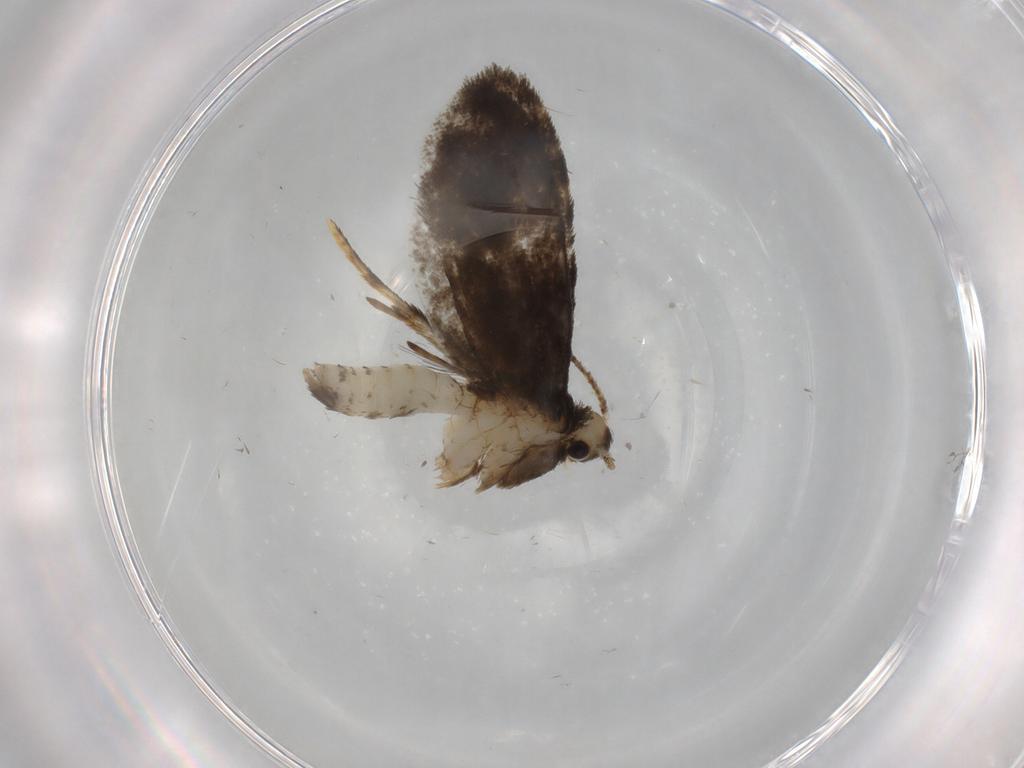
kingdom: Animalia
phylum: Arthropoda
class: Insecta
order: Lepidoptera
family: Psychidae
